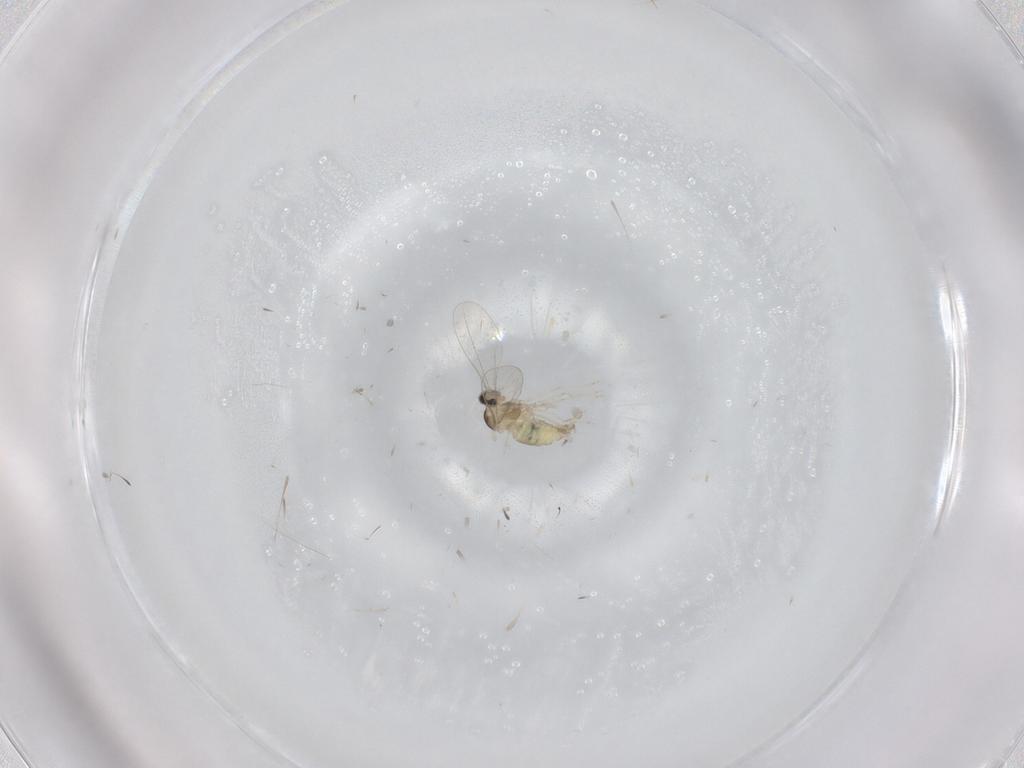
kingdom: Animalia
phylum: Arthropoda
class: Insecta
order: Diptera
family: Cecidomyiidae
